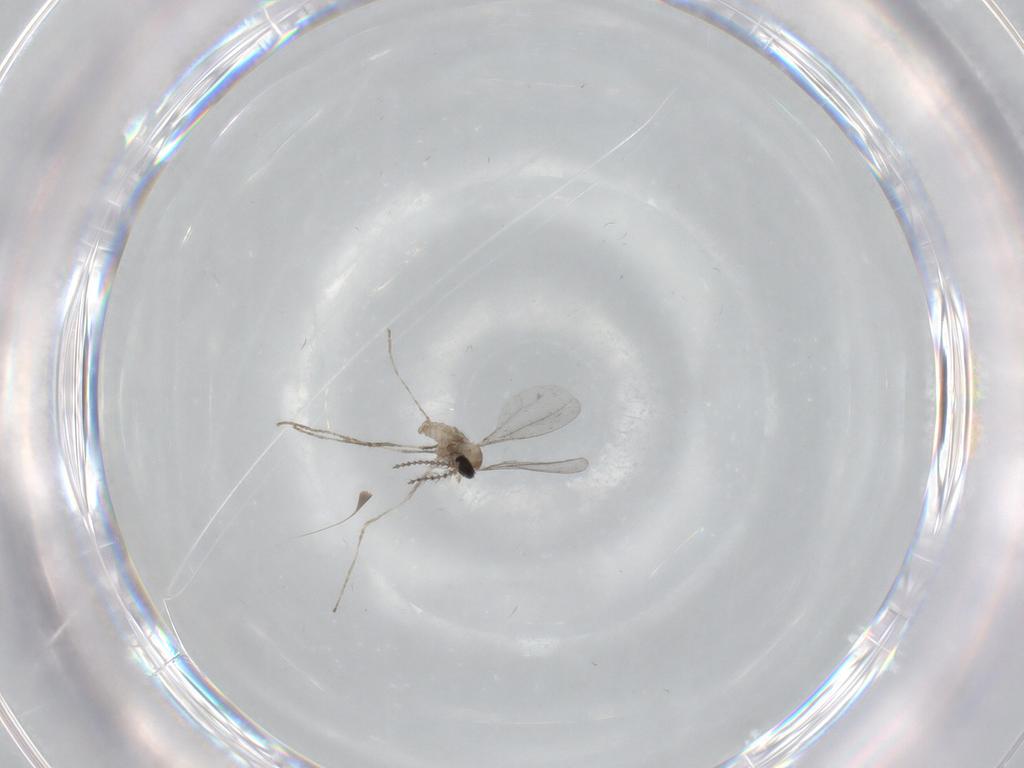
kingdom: Animalia
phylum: Arthropoda
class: Insecta
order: Diptera
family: Cecidomyiidae
